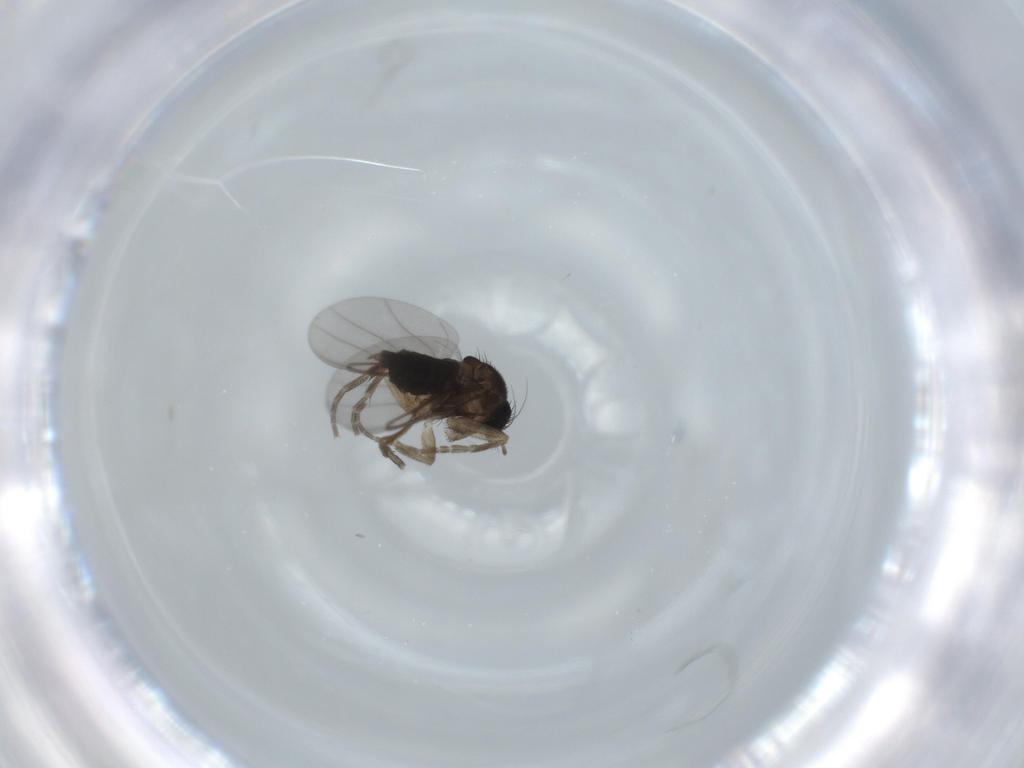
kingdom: Animalia
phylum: Arthropoda
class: Insecta
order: Diptera
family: Phoridae
